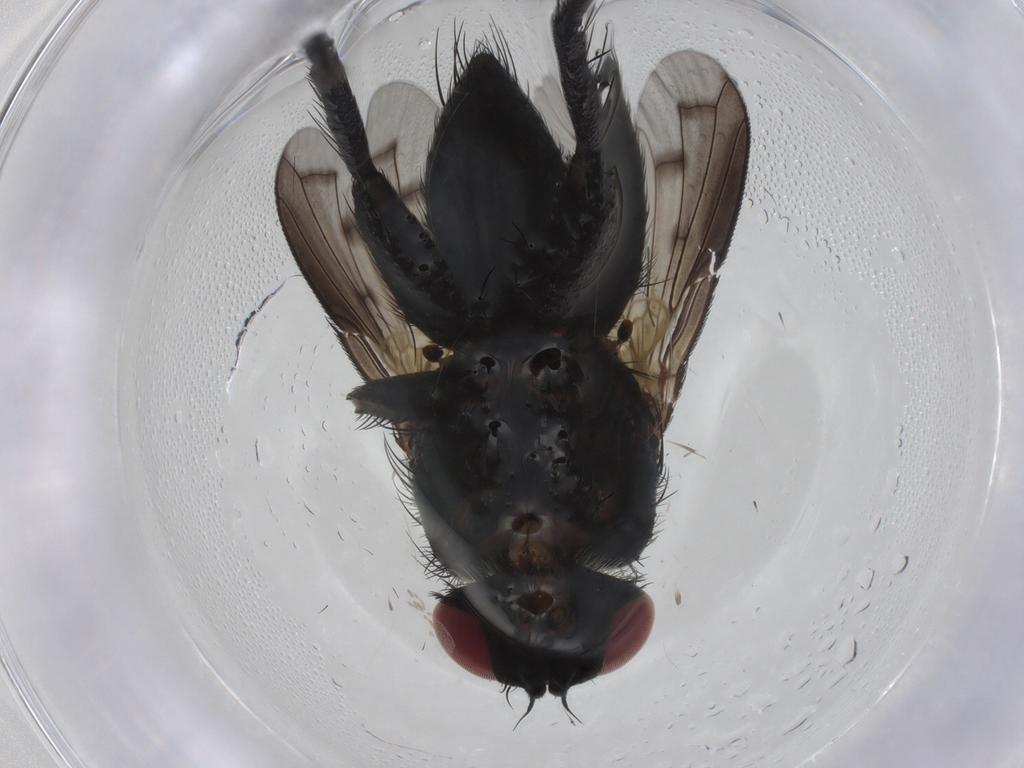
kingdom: Animalia
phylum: Arthropoda
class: Insecta
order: Diptera
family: Tachinidae
